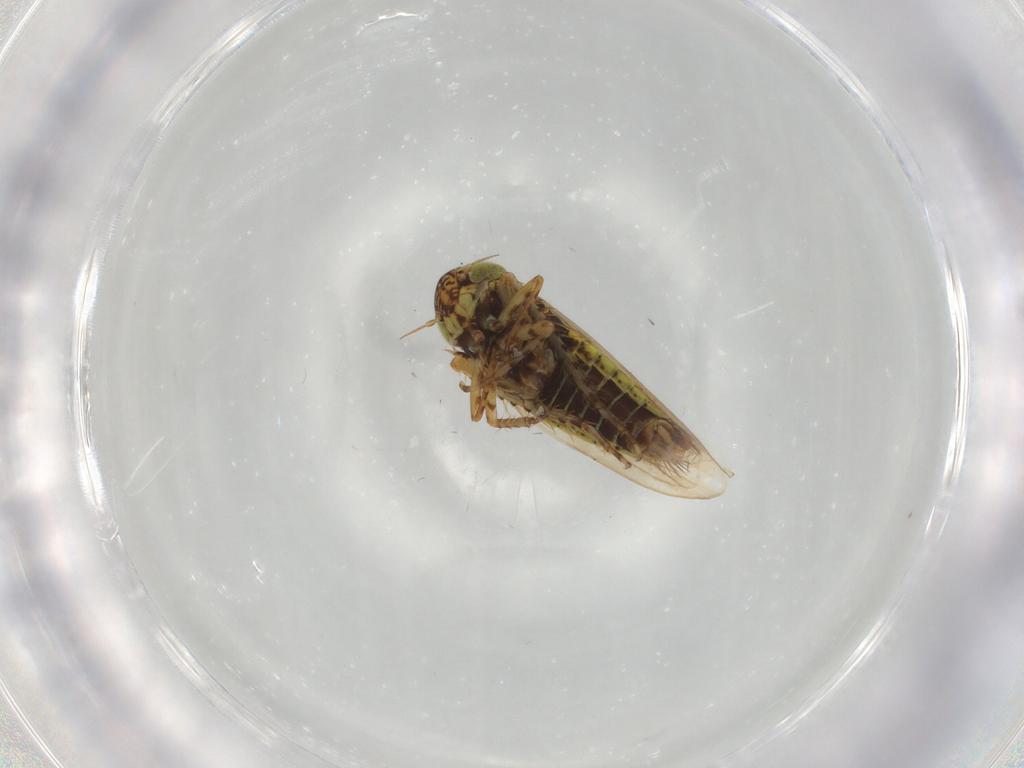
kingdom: Animalia
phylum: Arthropoda
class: Insecta
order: Hemiptera
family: Cicadellidae
